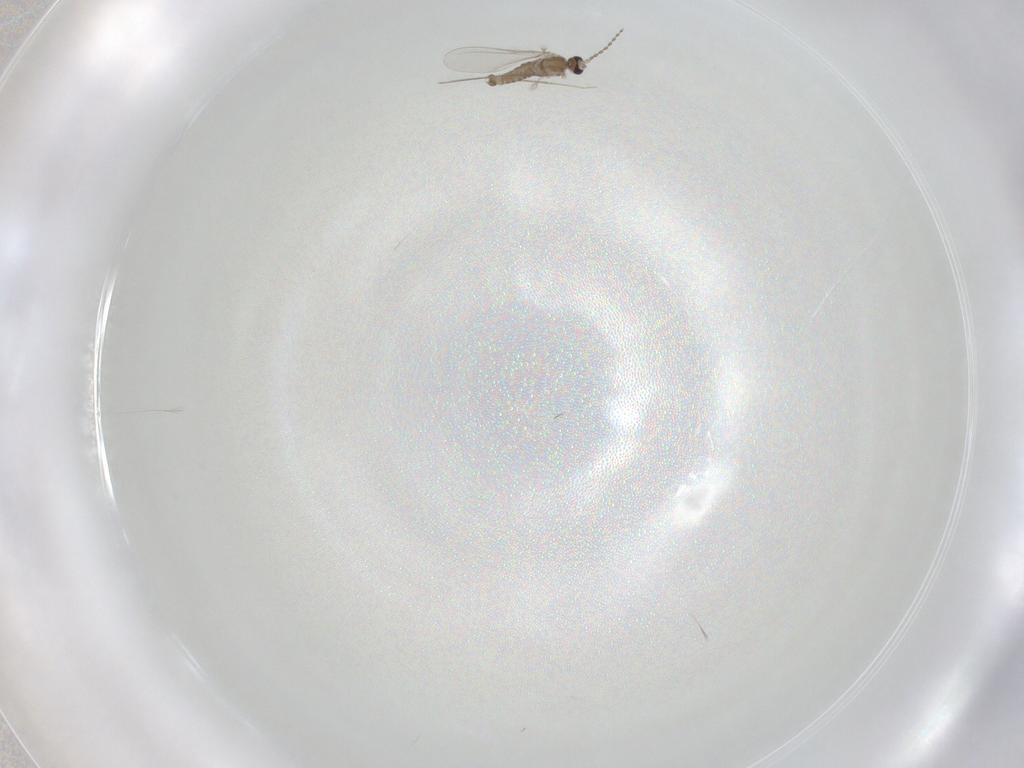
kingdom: Animalia
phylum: Arthropoda
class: Insecta
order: Diptera
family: Cecidomyiidae
